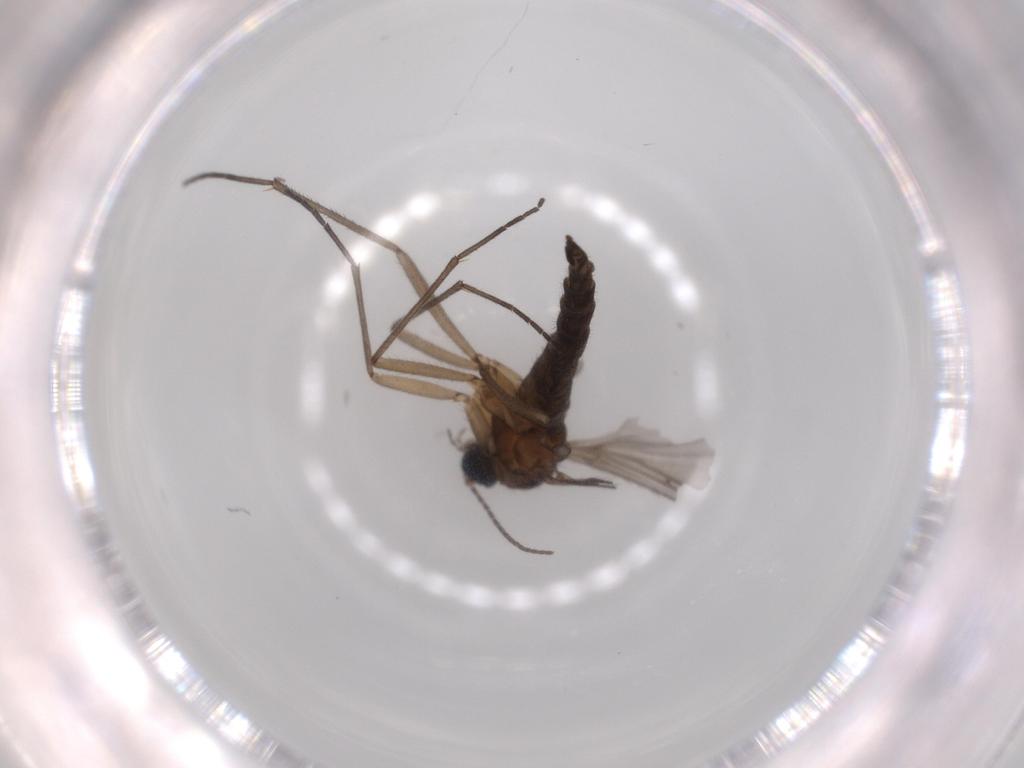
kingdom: Animalia
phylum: Arthropoda
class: Insecta
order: Diptera
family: Sciaridae
